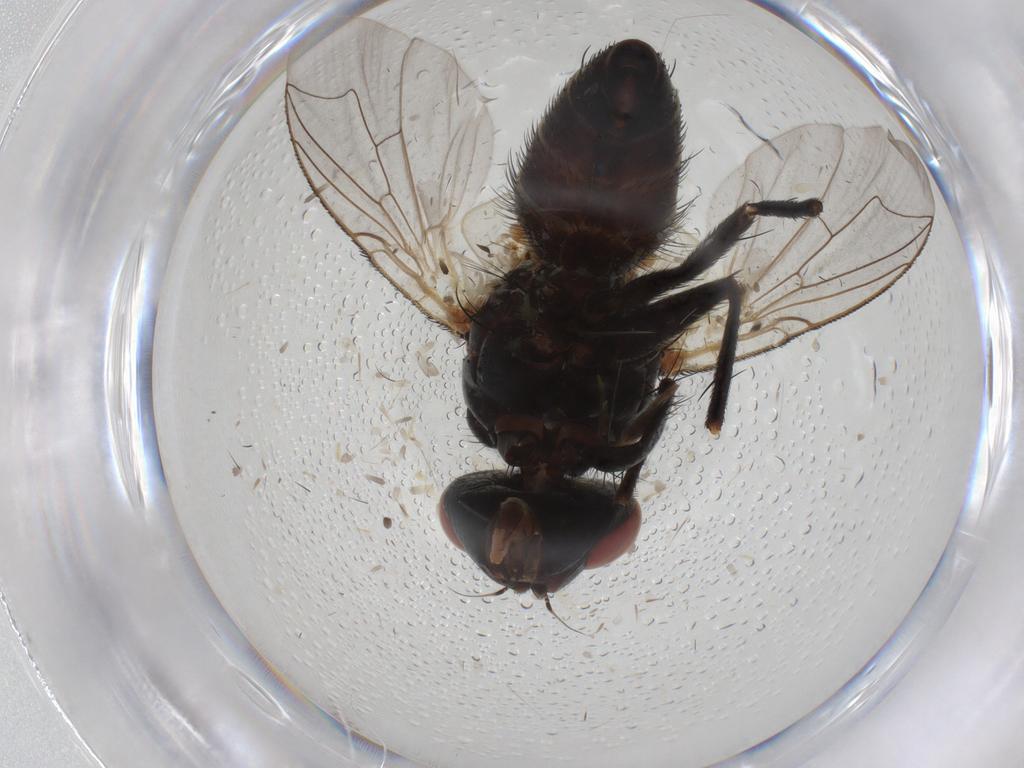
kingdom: Animalia
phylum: Arthropoda
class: Insecta
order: Diptera
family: Sarcophagidae
